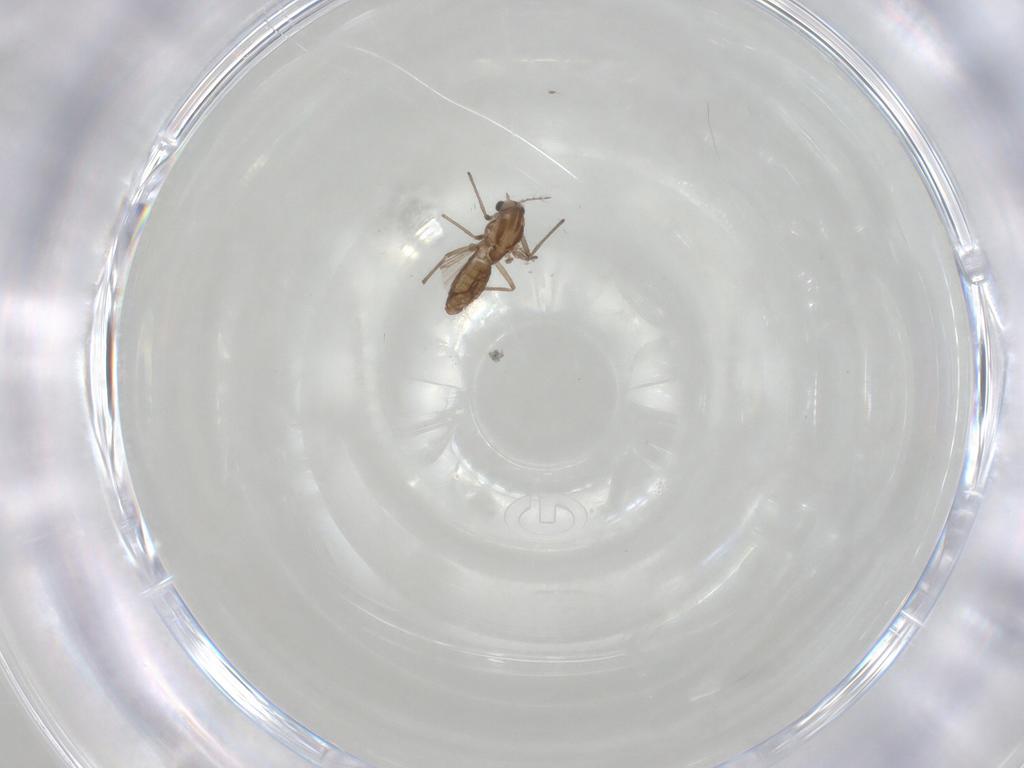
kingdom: Animalia
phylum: Arthropoda
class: Insecta
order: Diptera
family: Chironomidae
